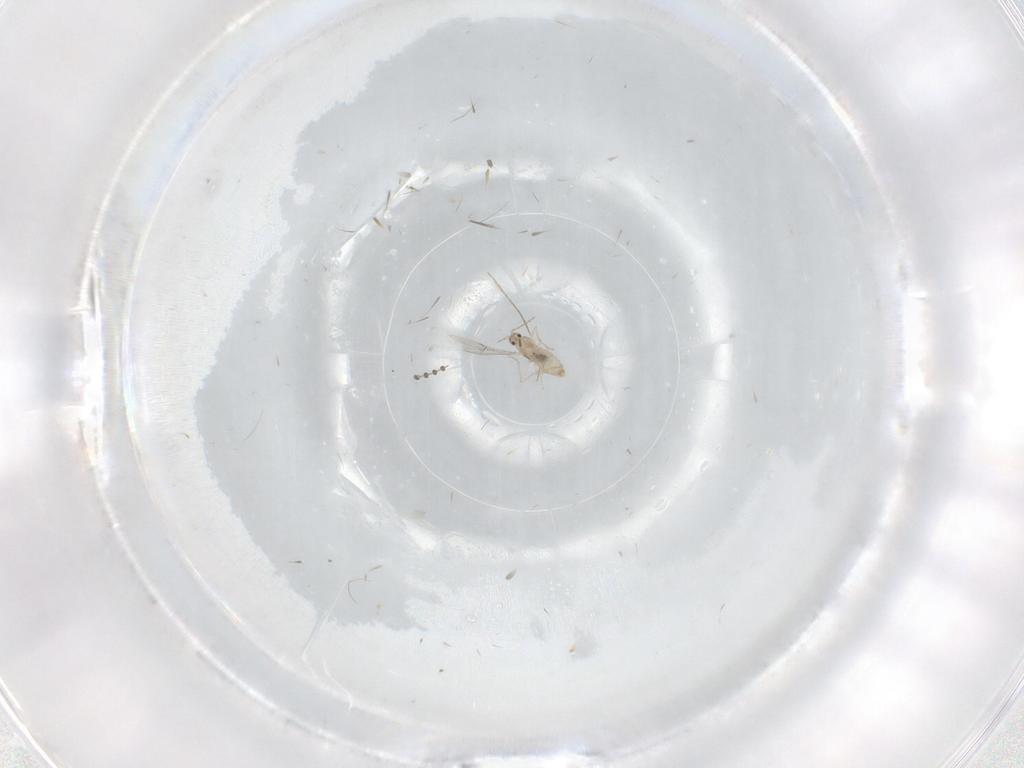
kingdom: Animalia
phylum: Arthropoda
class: Insecta
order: Diptera
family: Cecidomyiidae
